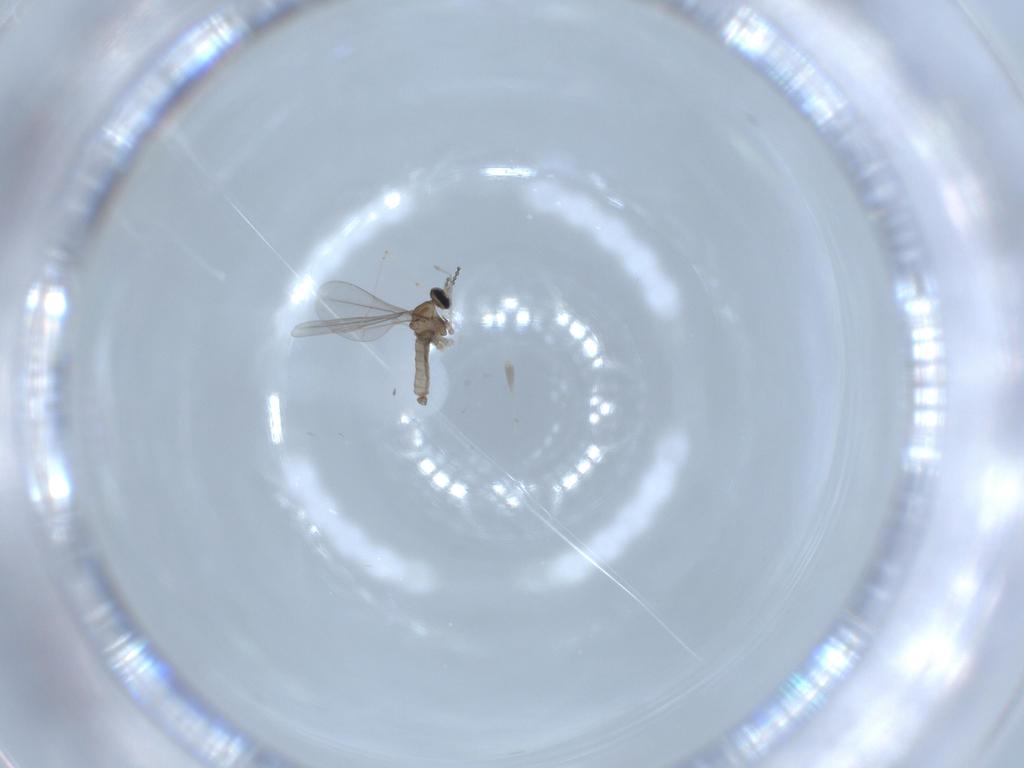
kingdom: Animalia
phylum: Arthropoda
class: Insecta
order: Diptera
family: Cecidomyiidae
